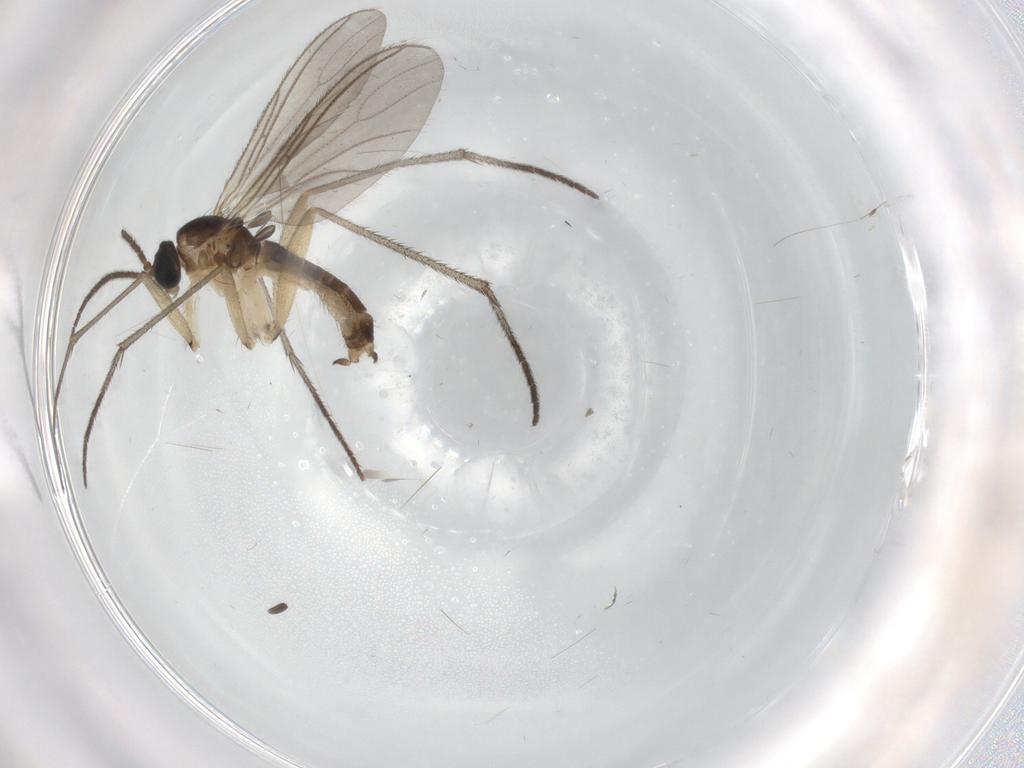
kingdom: Animalia
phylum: Arthropoda
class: Insecta
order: Diptera
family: Sciaridae
